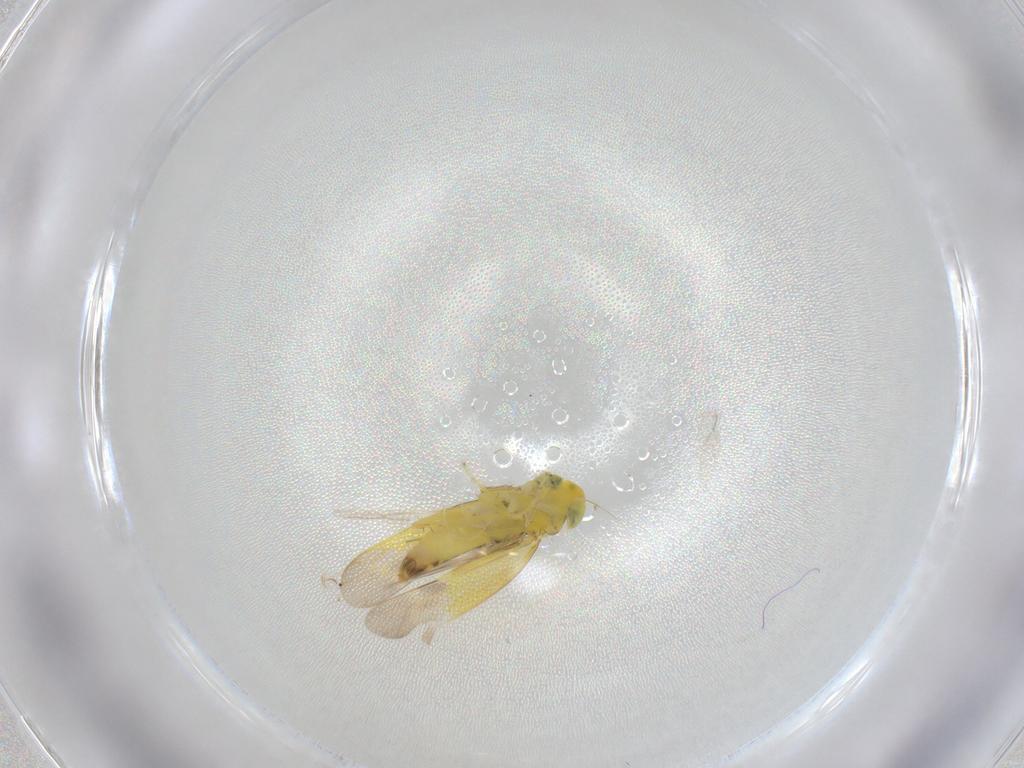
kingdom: Animalia
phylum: Arthropoda
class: Insecta
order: Hemiptera
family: Cicadellidae
